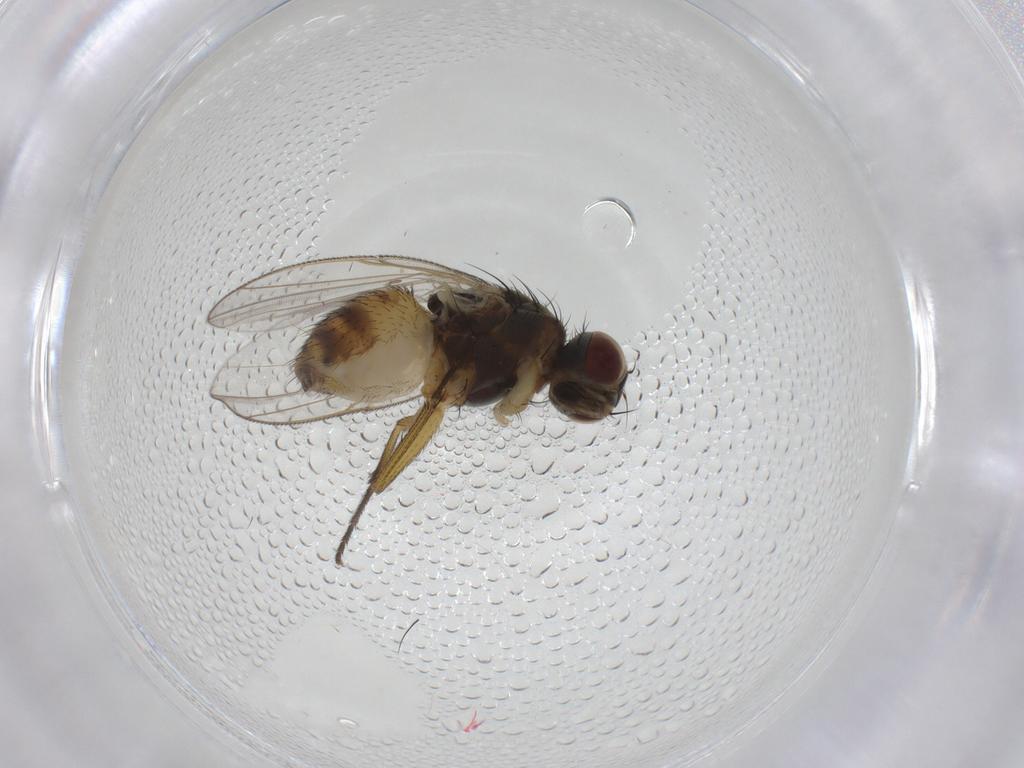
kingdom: Animalia
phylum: Arthropoda
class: Insecta
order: Diptera
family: Muscidae
